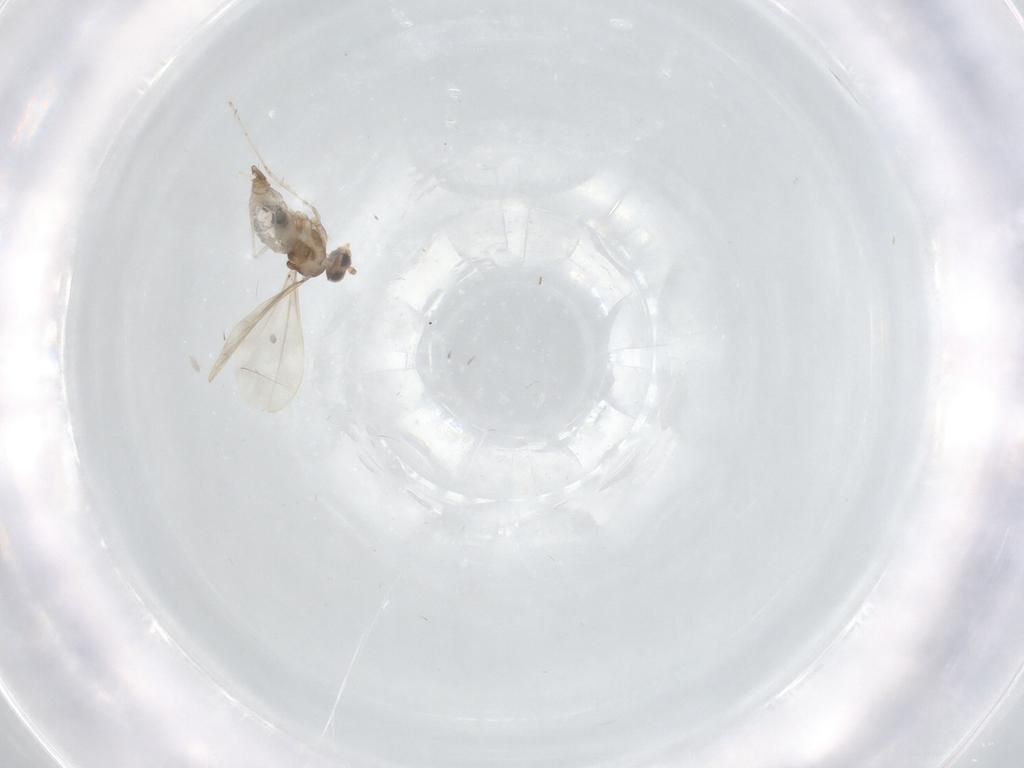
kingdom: Animalia
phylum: Arthropoda
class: Insecta
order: Diptera
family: Cecidomyiidae
